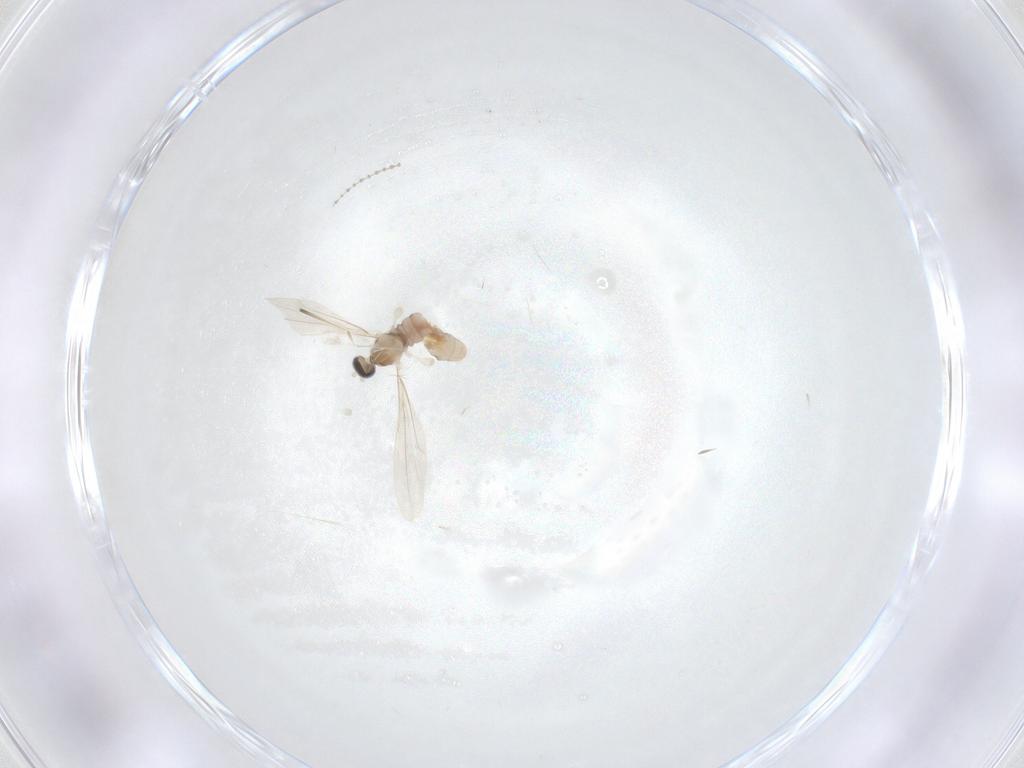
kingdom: Animalia
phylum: Arthropoda
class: Insecta
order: Diptera
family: Cecidomyiidae
